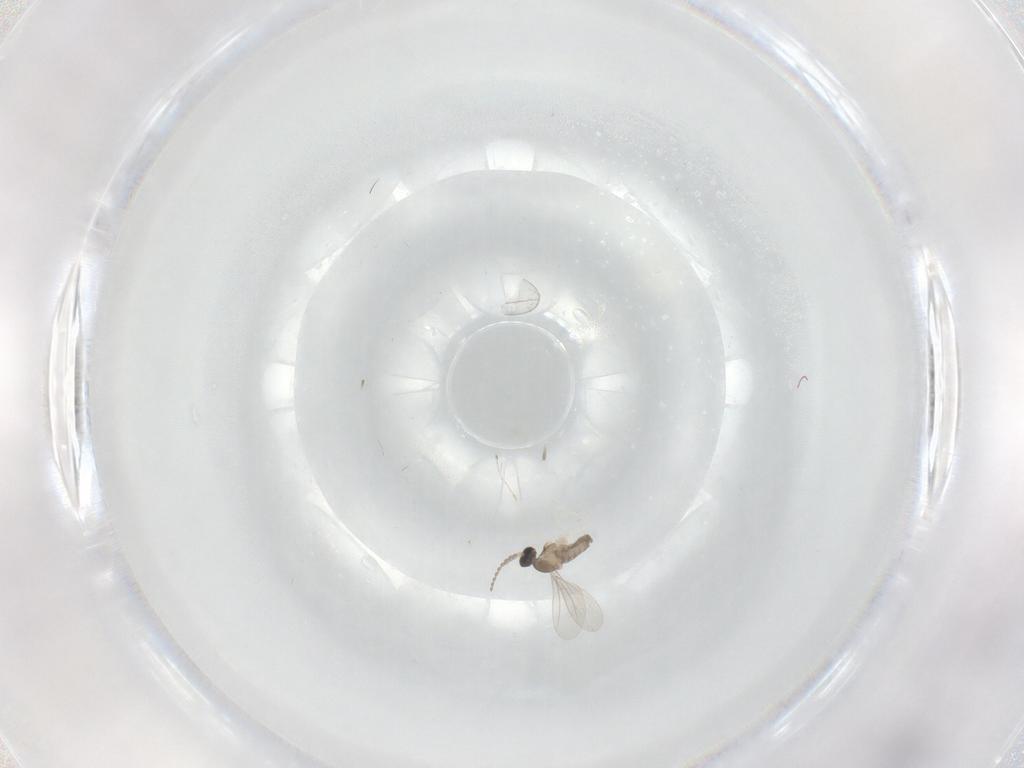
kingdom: Animalia
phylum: Arthropoda
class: Insecta
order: Diptera
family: Cecidomyiidae
